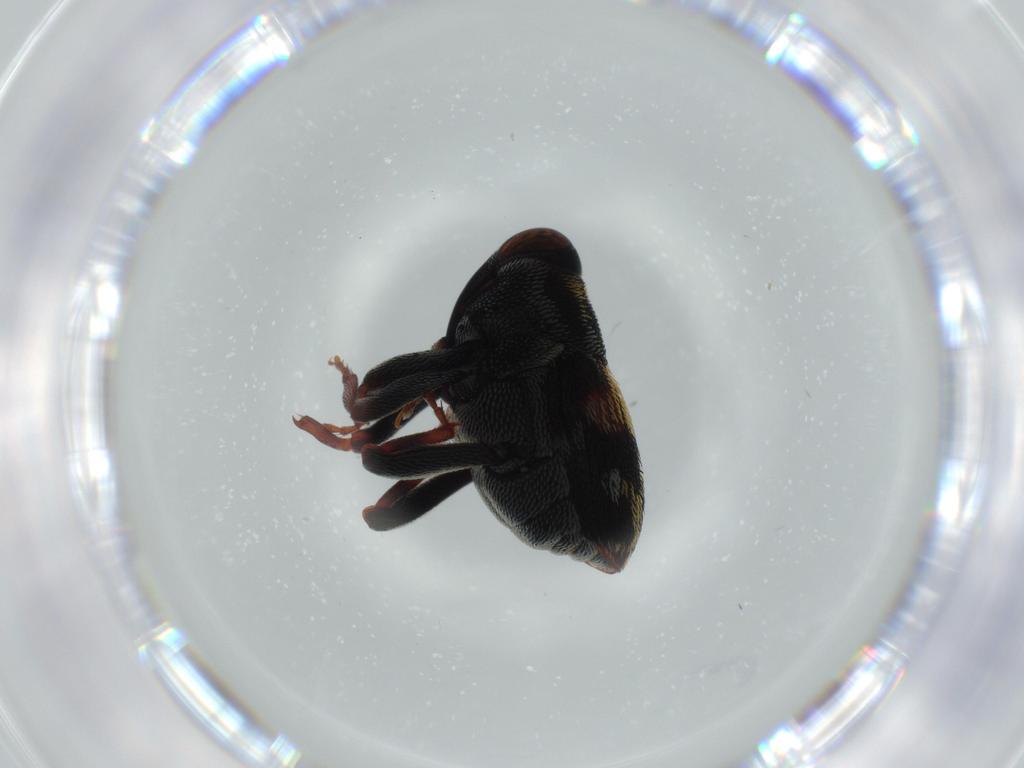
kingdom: Animalia
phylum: Arthropoda
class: Insecta
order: Coleoptera
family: Curculionidae
